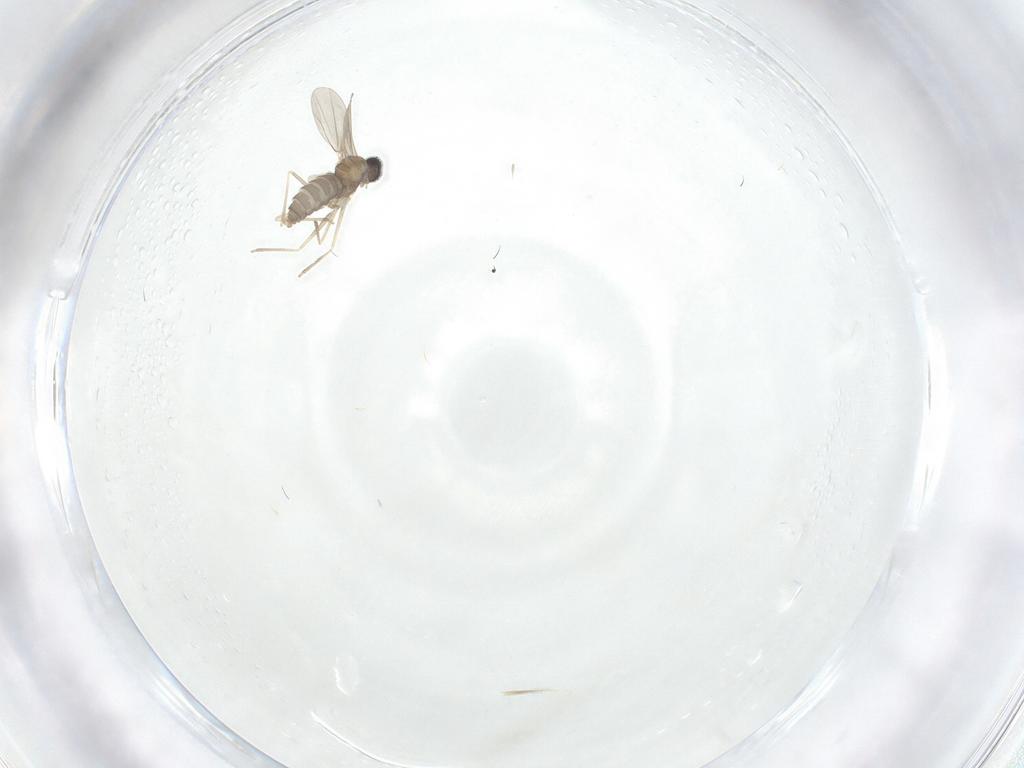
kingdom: Animalia
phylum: Arthropoda
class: Insecta
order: Diptera
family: Cecidomyiidae
